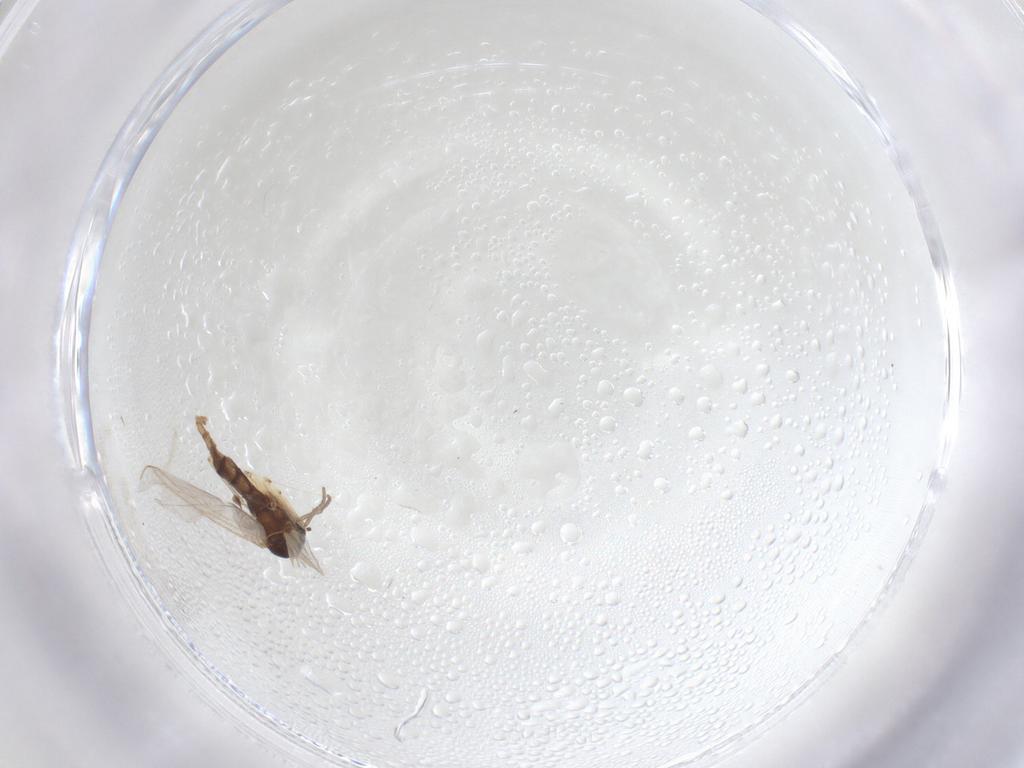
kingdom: Animalia
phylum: Arthropoda
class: Insecta
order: Diptera
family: Sciaridae
